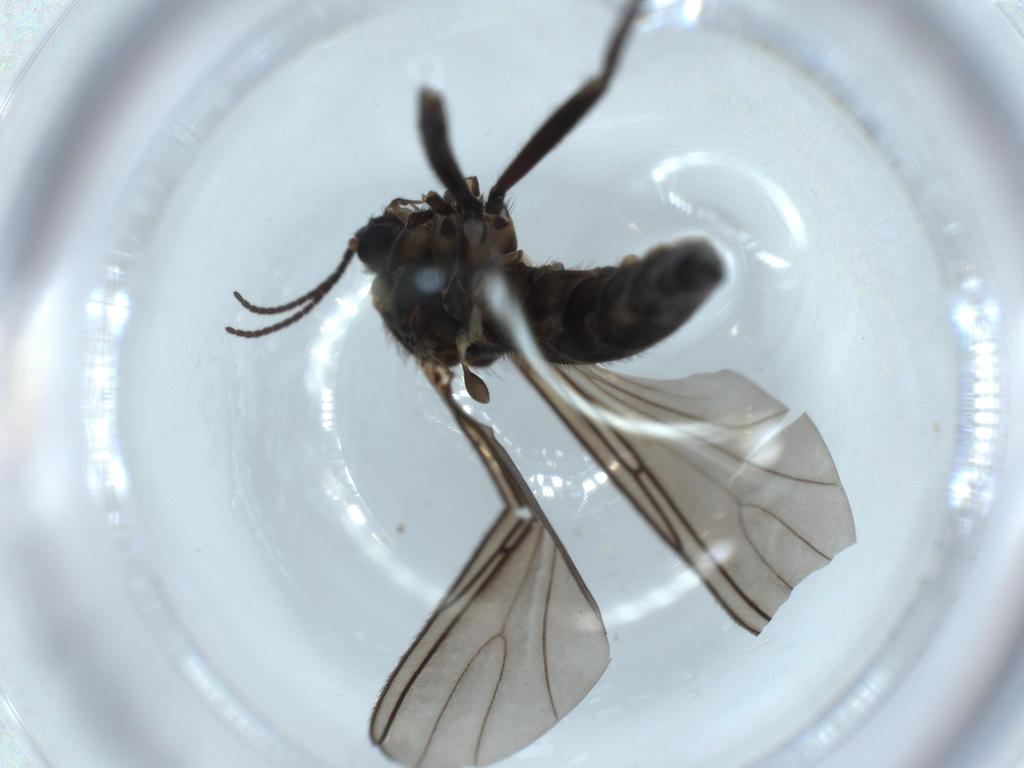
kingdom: Animalia
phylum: Arthropoda
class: Insecta
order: Diptera
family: Sciaridae
